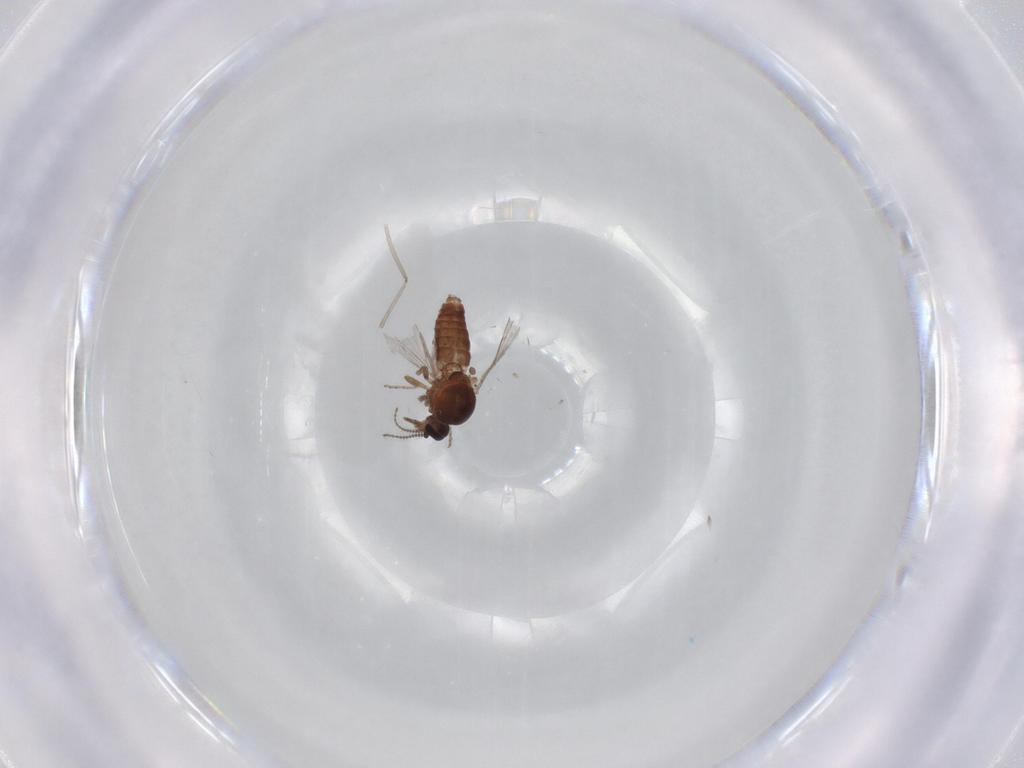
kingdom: Animalia
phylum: Arthropoda
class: Insecta
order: Diptera
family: Ceratopogonidae
